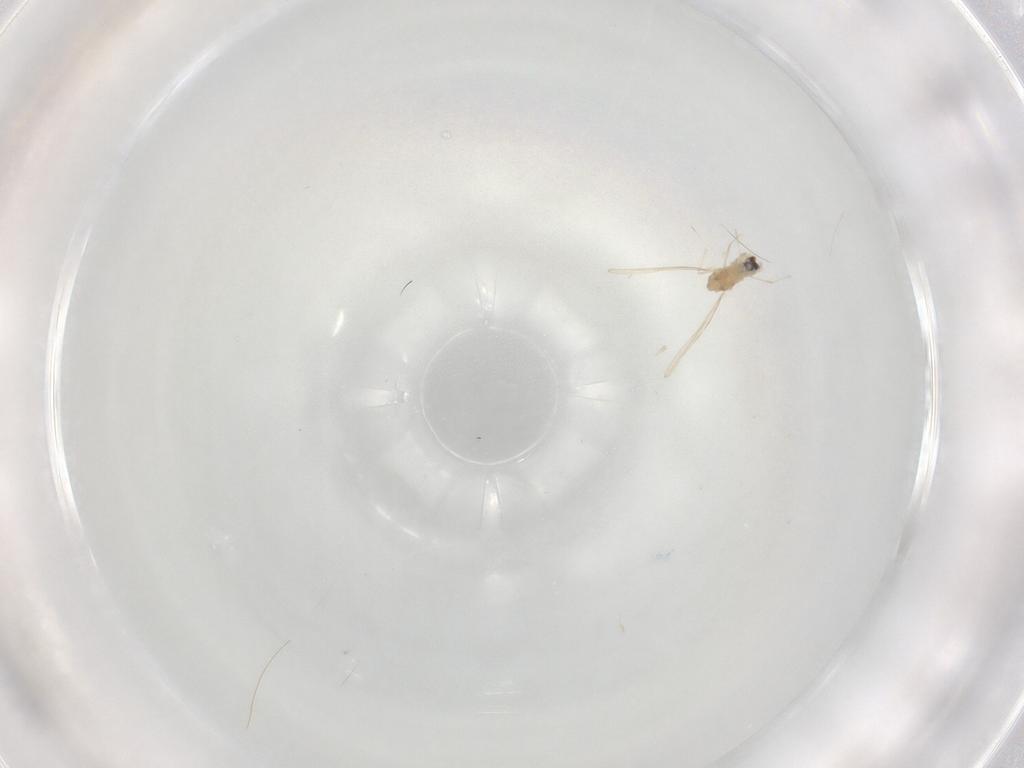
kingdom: Animalia
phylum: Arthropoda
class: Insecta
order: Diptera
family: Cecidomyiidae
